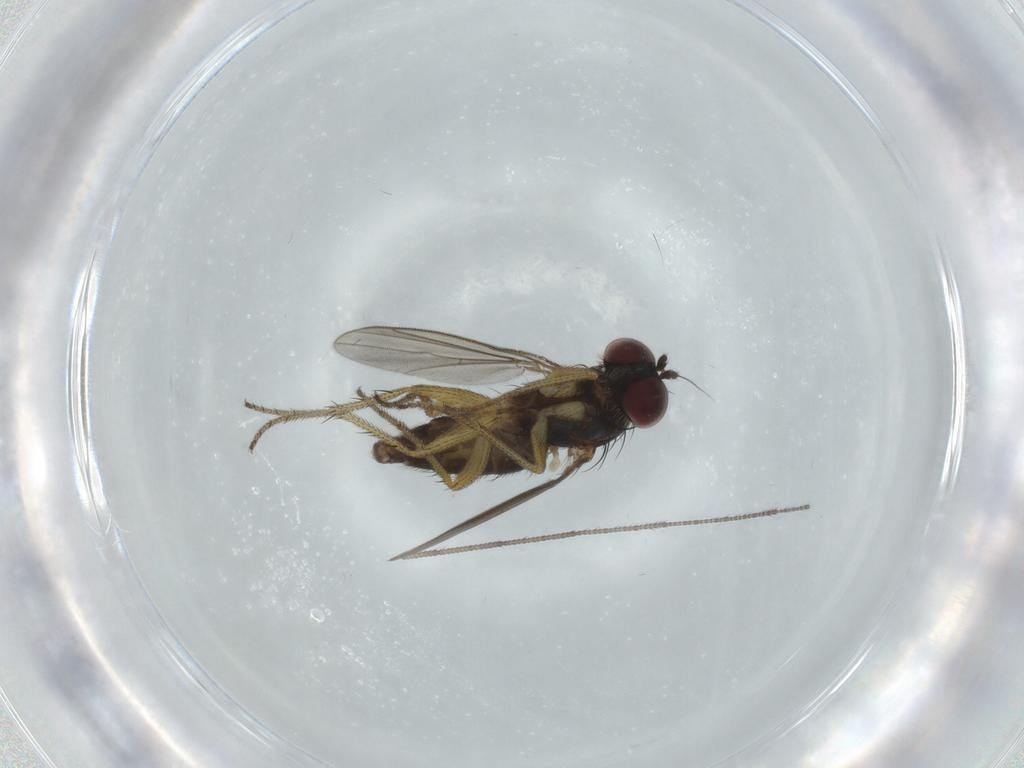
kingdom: Animalia
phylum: Arthropoda
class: Insecta
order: Diptera
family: Dolichopodidae
